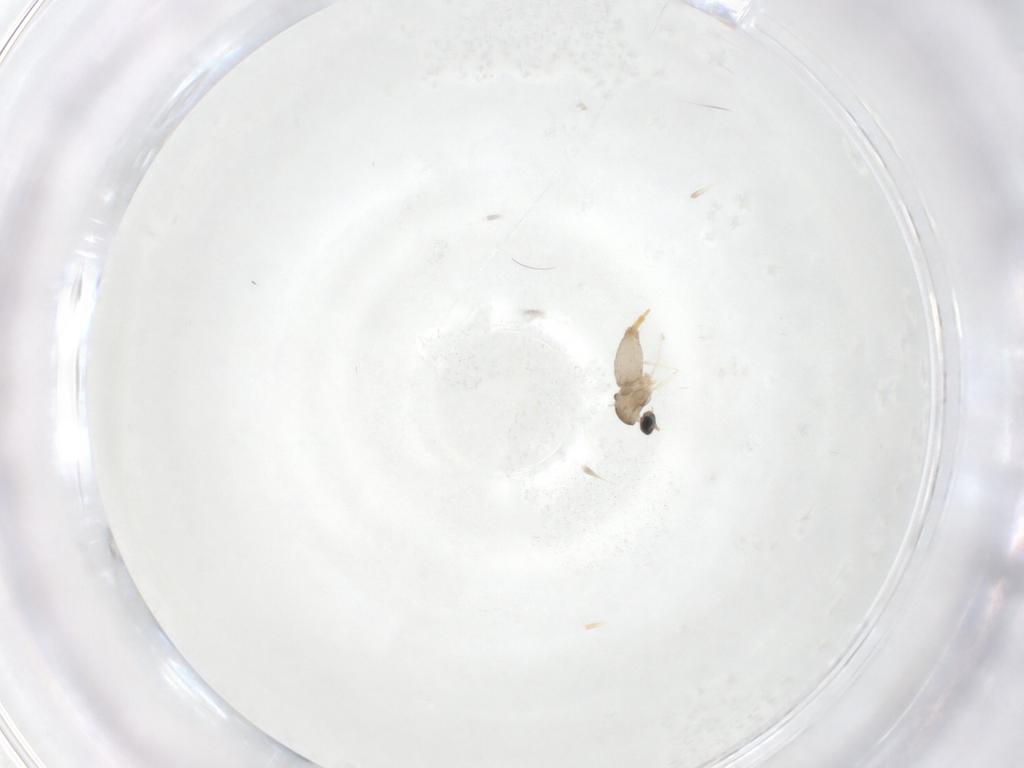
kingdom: Animalia
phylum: Arthropoda
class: Insecta
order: Diptera
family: Cecidomyiidae
